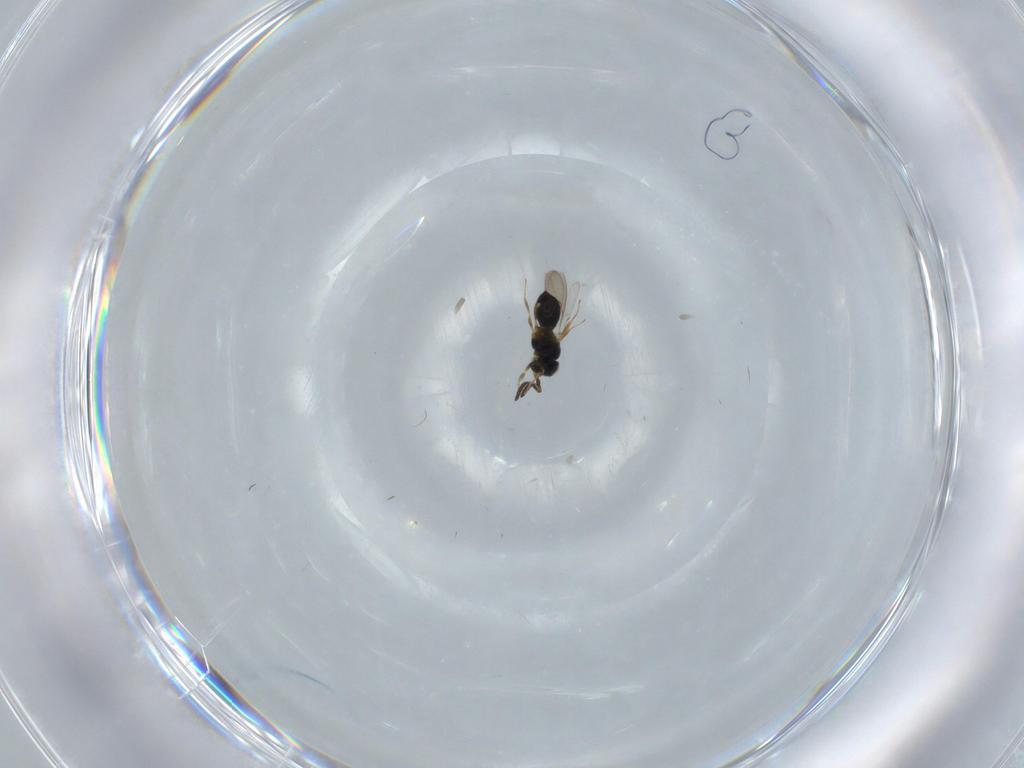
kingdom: Animalia
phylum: Arthropoda
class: Insecta
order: Hymenoptera
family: Scelionidae
